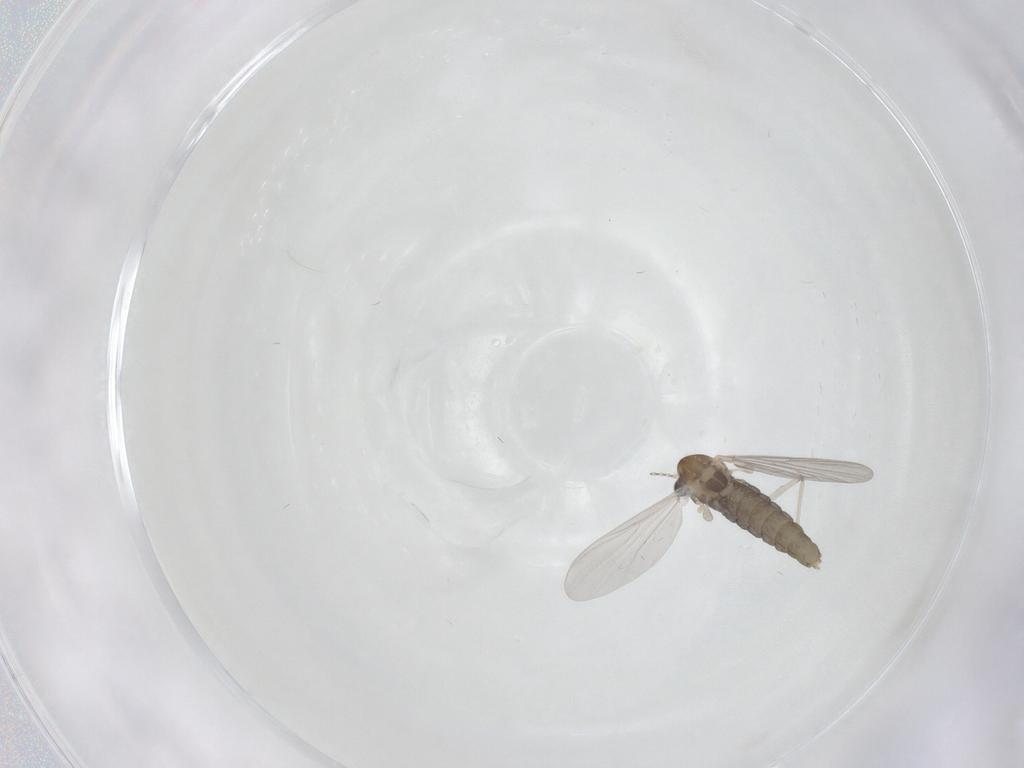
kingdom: Animalia
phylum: Arthropoda
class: Insecta
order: Diptera
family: Chironomidae
